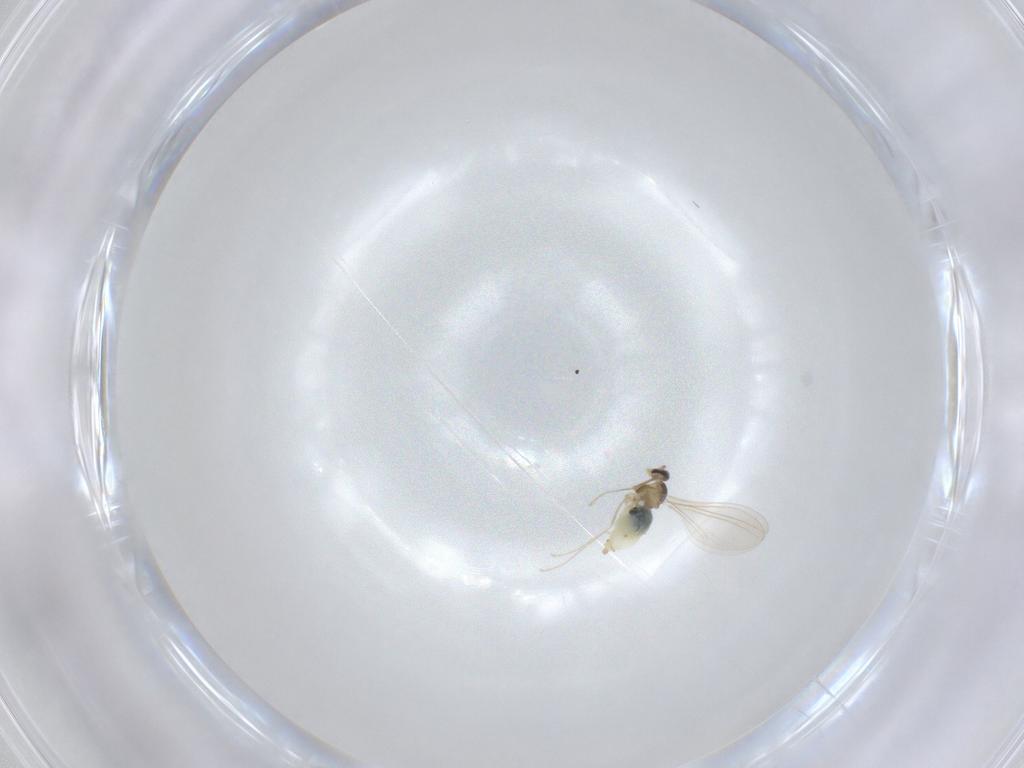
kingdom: Animalia
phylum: Arthropoda
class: Insecta
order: Diptera
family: Cecidomyiidae
